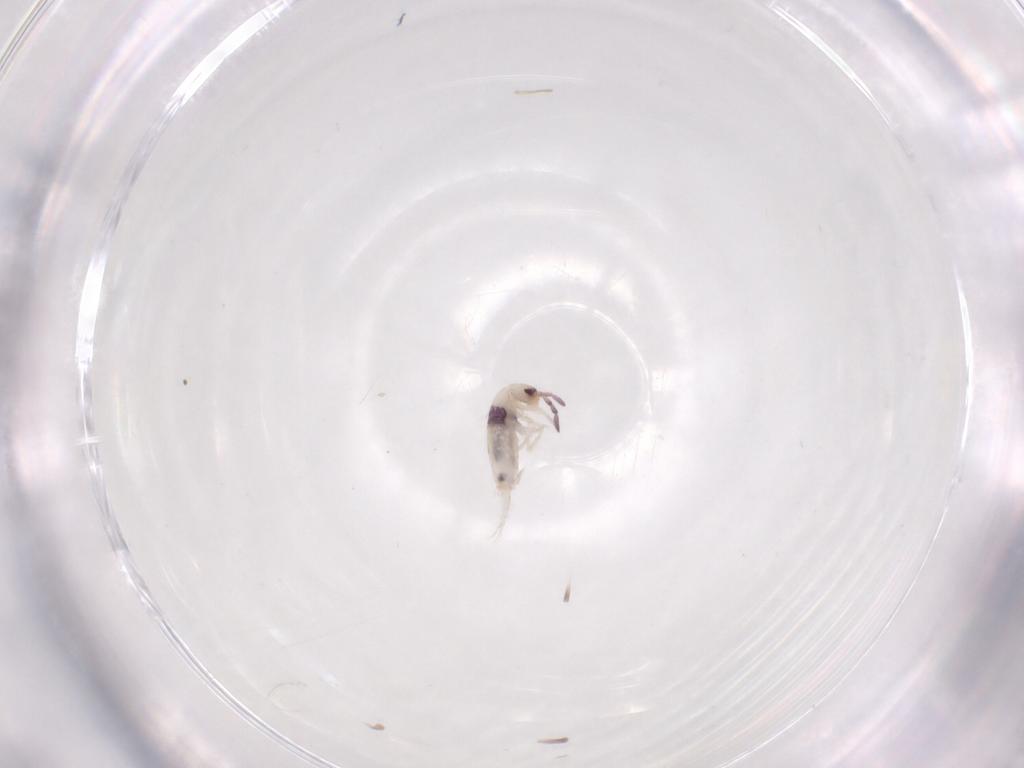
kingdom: Animalia
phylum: Arthropoda
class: Collembola
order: Entomobryomorpha
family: Entomobryidae
